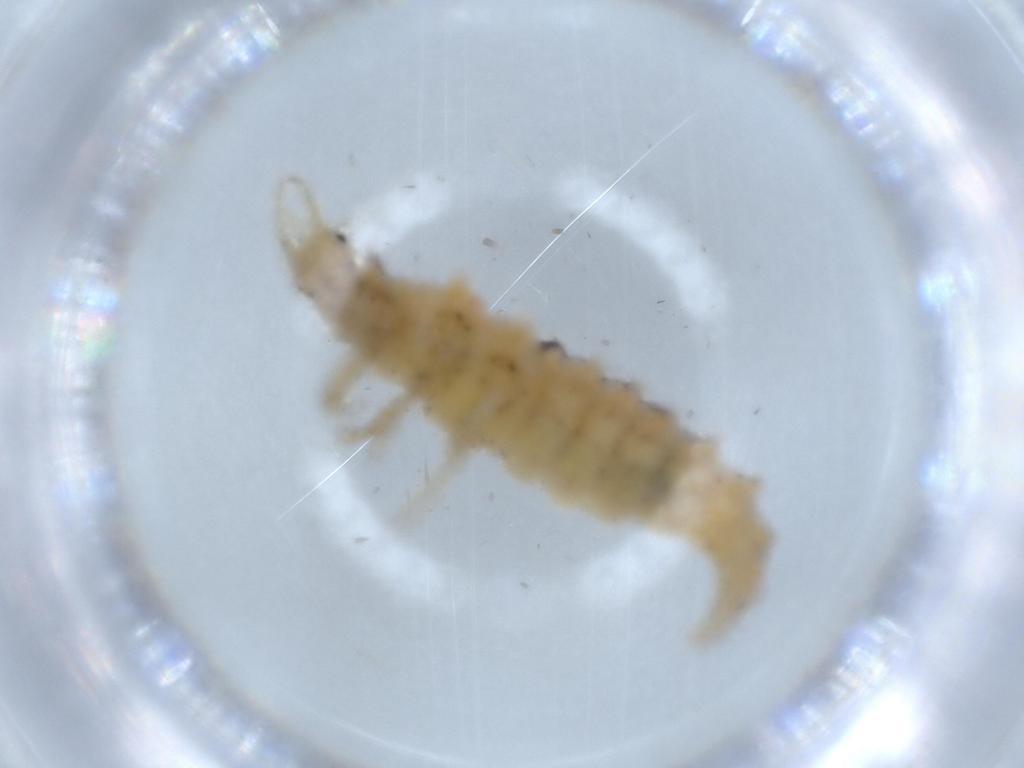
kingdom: Animalia
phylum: Arthropoda
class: Insecta
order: Neuroptera
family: Chrysopidae
